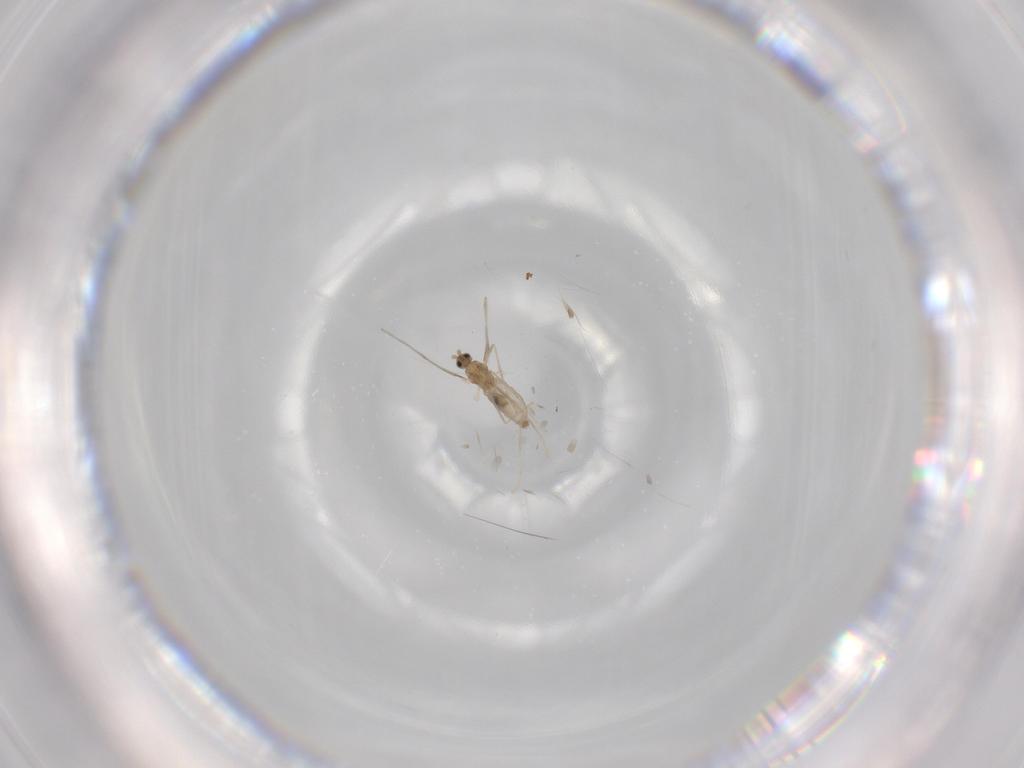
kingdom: Animalia
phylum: Arthropoda
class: Insecta
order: Diptera
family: Cecidomyiidae
